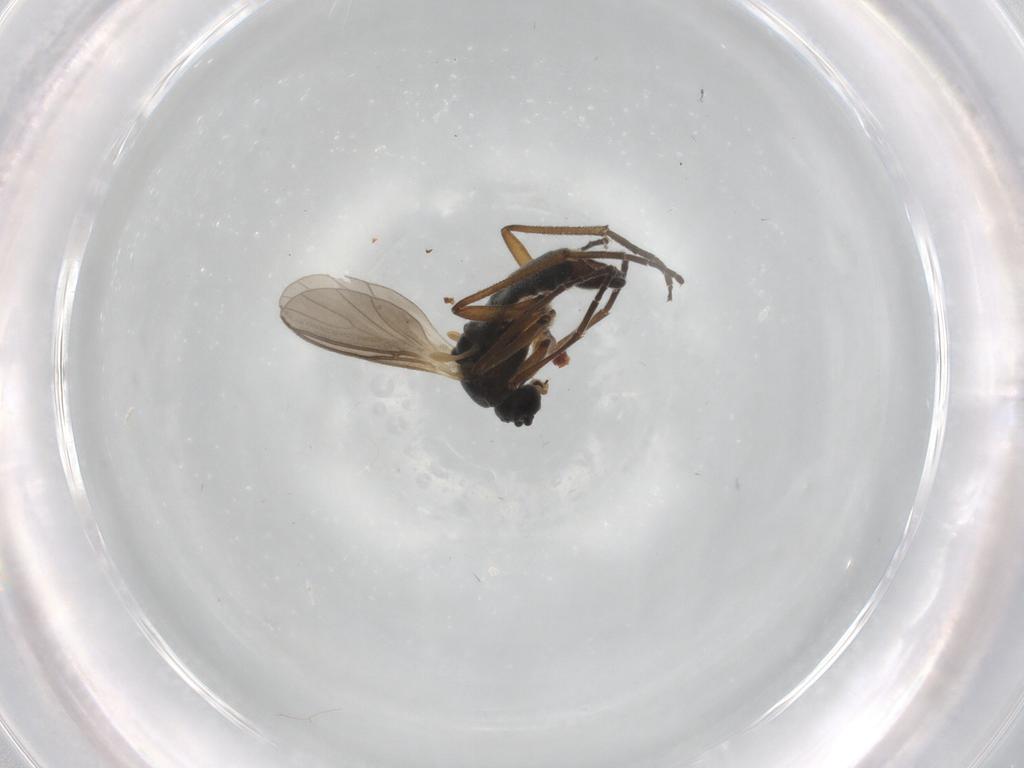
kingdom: Animalia
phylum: Arthropoda
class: Insecta
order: Diptera
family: Sciaridae
